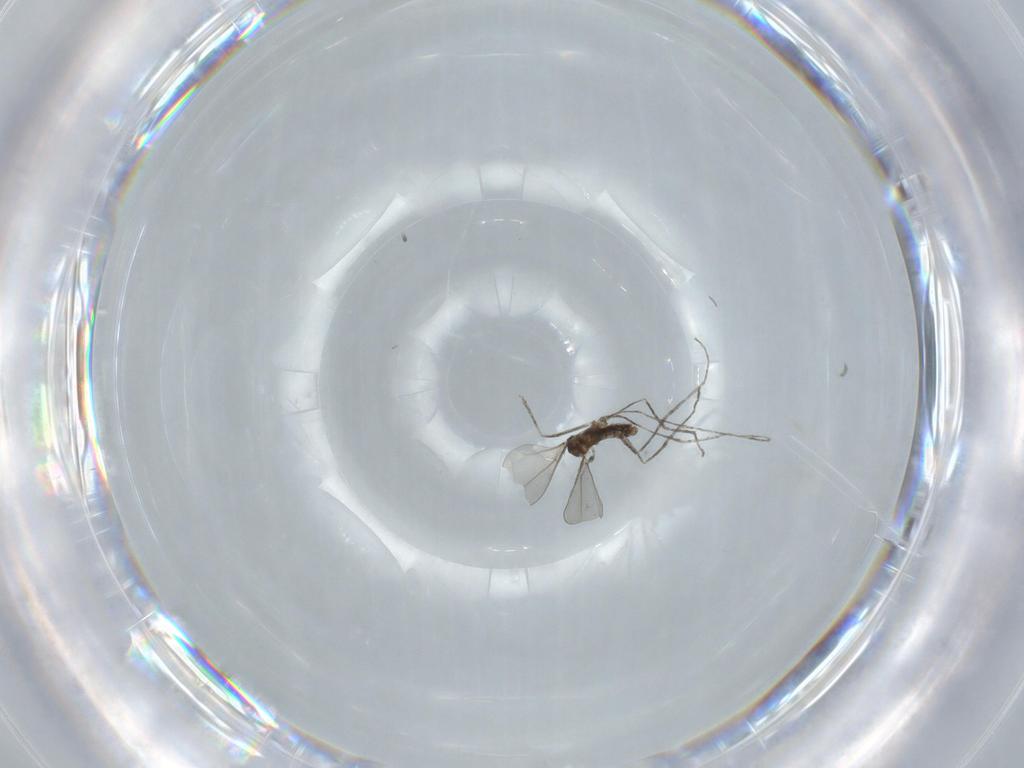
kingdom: Animalia
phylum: Arthropoda
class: Insecta
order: Diptera
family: Cecidomyiidae
